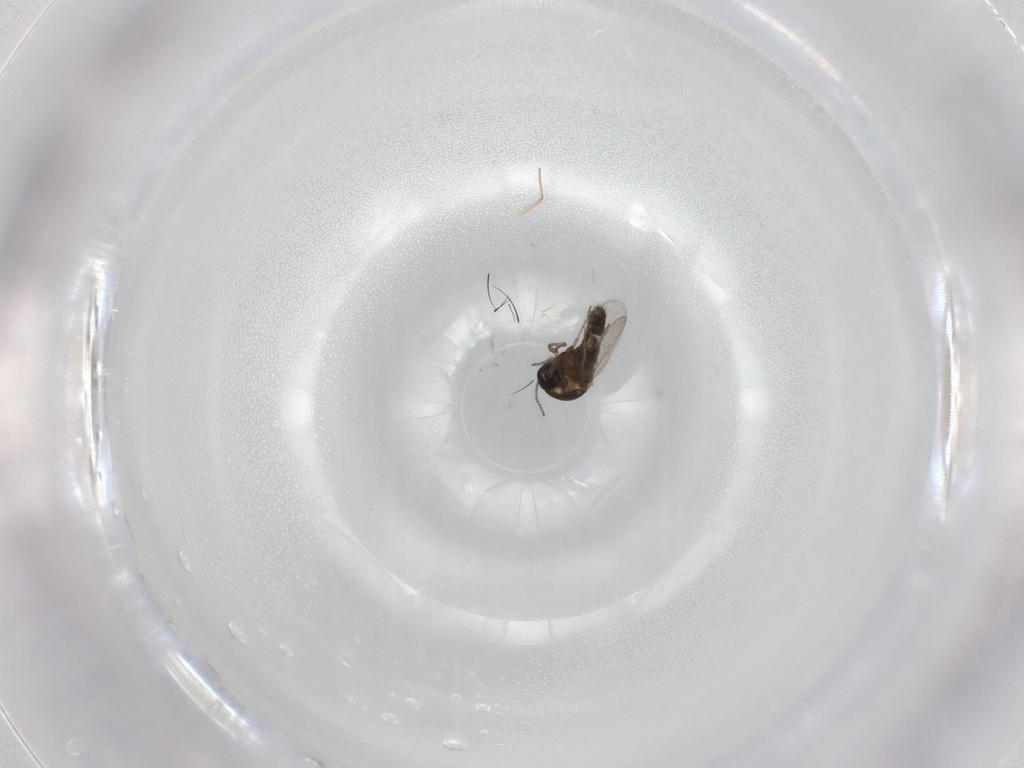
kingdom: Animalia
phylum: Arthropoda
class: Insecta
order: Diptera
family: Ceratopogonidae
